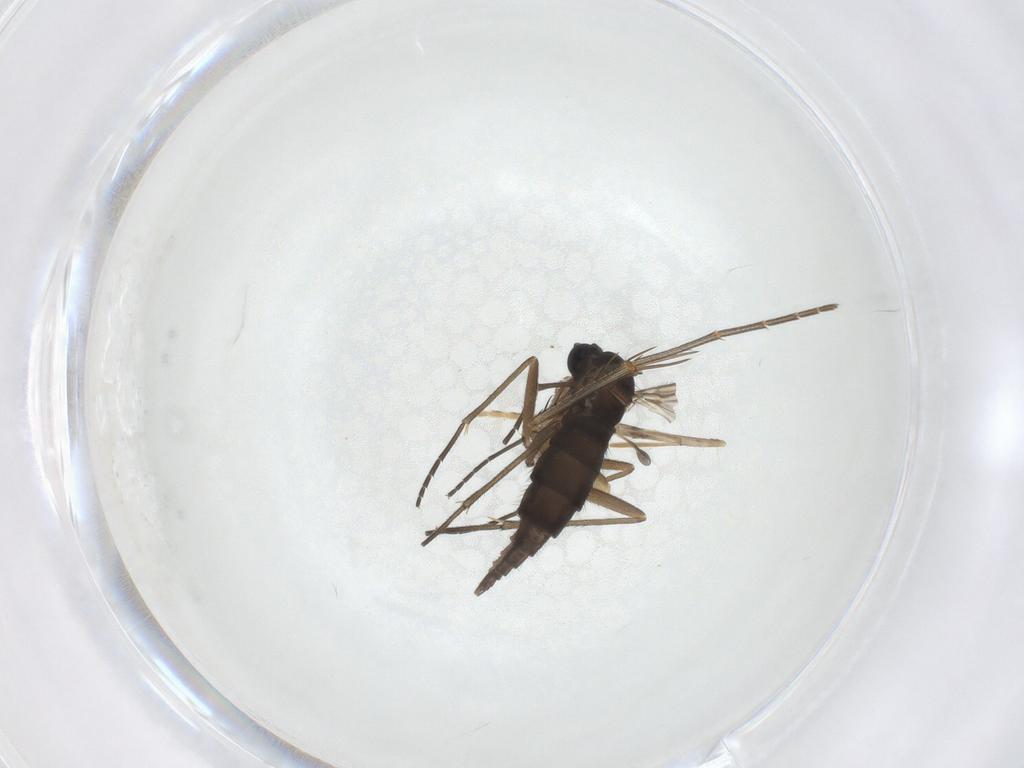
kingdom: Animalia
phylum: Arthropoda
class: Insecta
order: Diptera
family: Sciaridae
